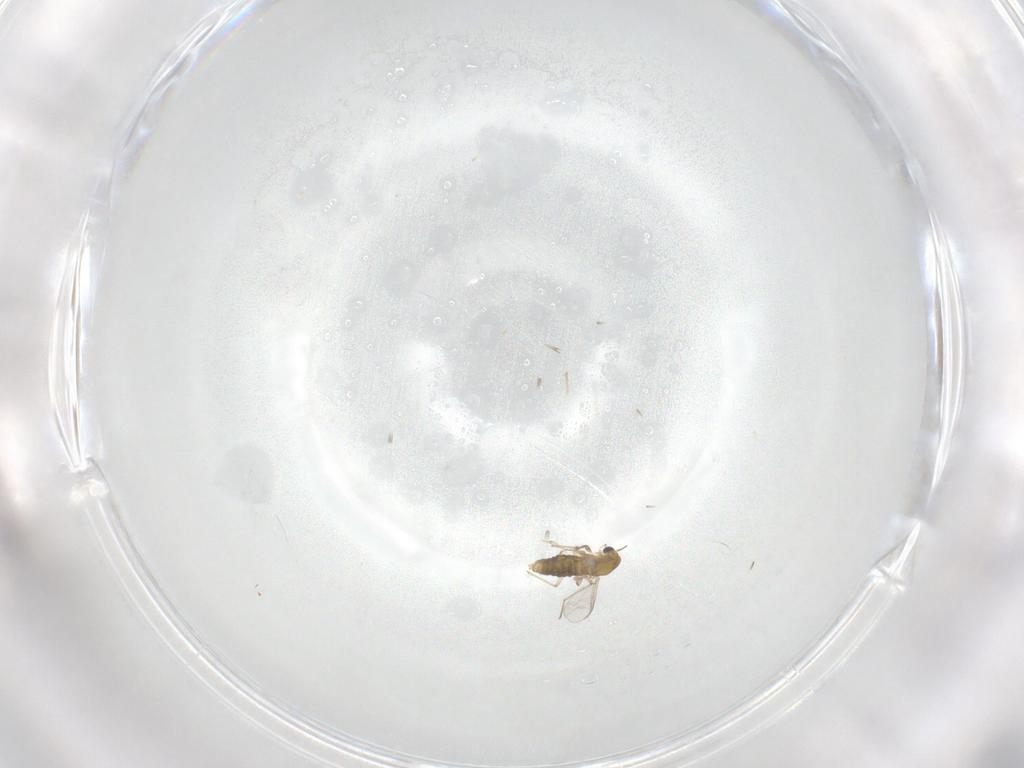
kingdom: Animalia
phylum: Arthropoda
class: Insecta
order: Diptera
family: Chironomidae
